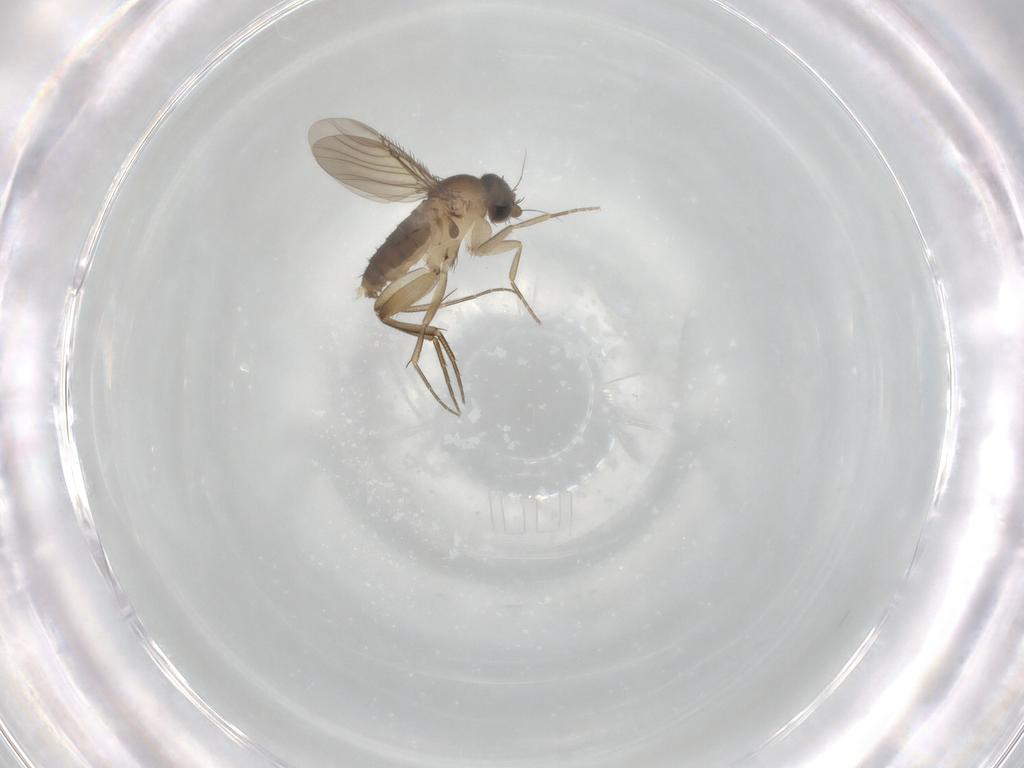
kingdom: Animalia
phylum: Arthropoda
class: Insecta
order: Diptera
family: Phoridae
